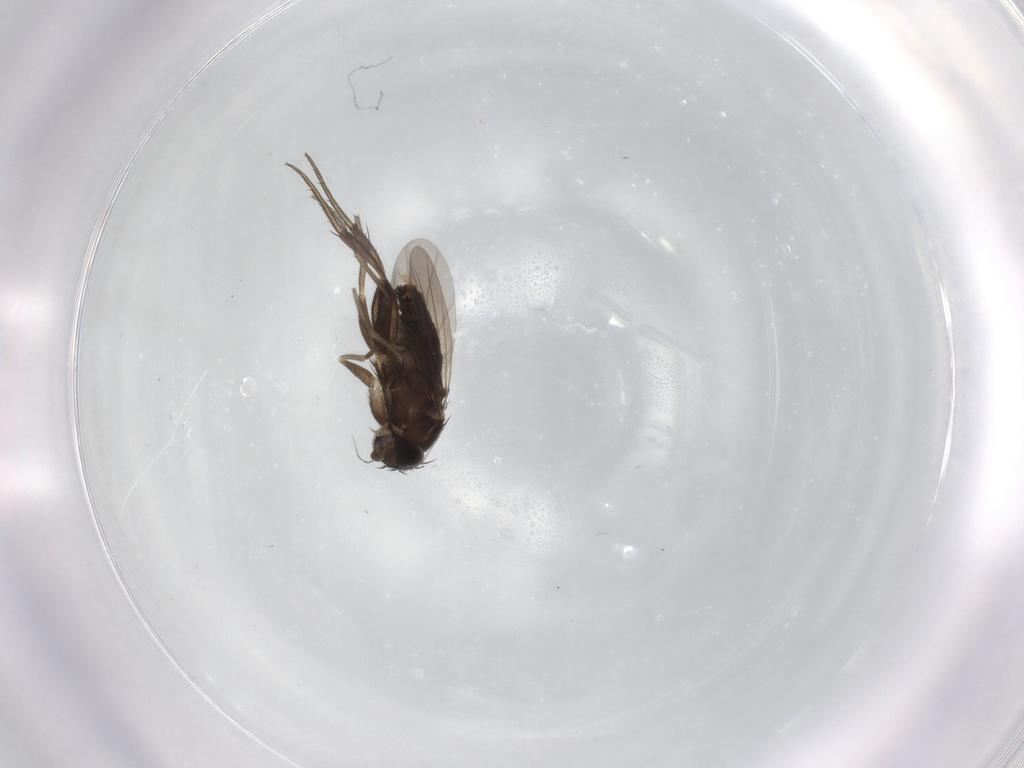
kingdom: Animalia
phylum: Arthropoda
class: Insecta
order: Diptera
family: Phoridae
